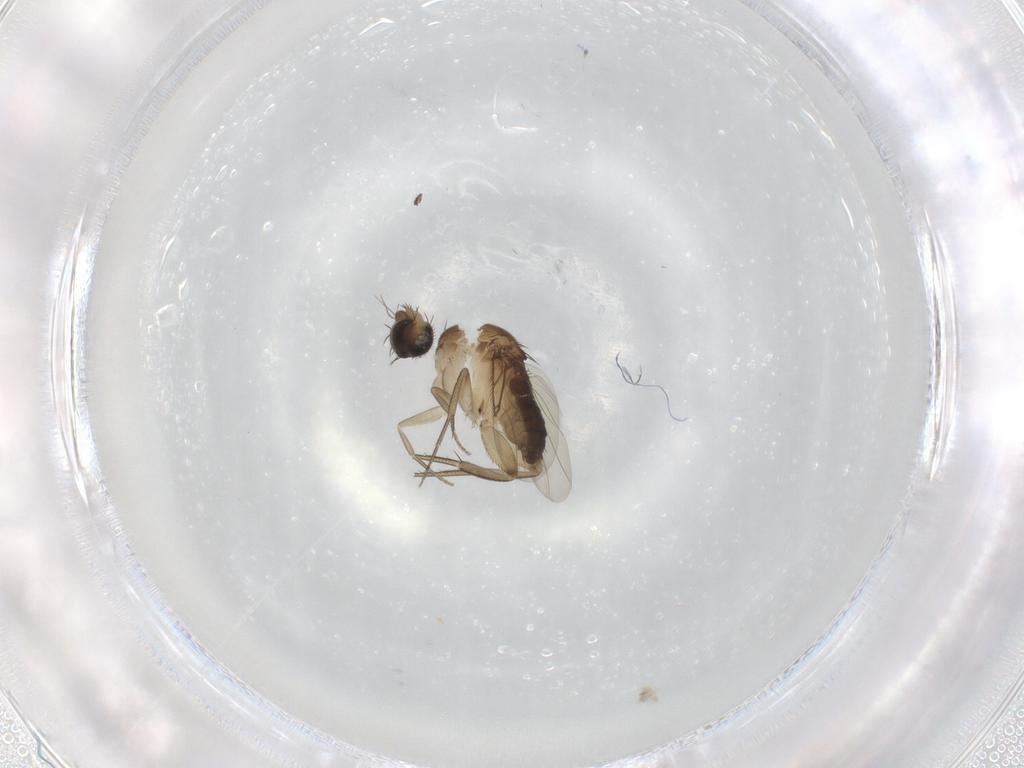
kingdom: Animalia
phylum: Arthropoda
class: Insecta
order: Diptera
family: Phoridae
